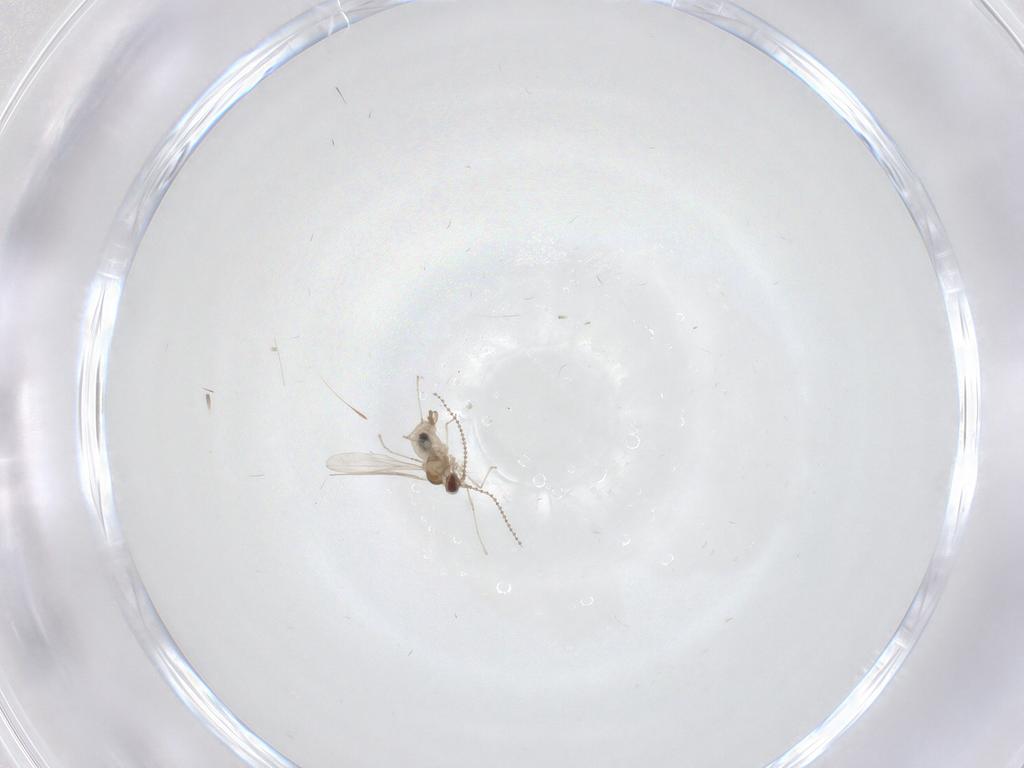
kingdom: Animalia
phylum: Arthropoda
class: Insecta
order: Diptera
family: Cecidomyiidae
